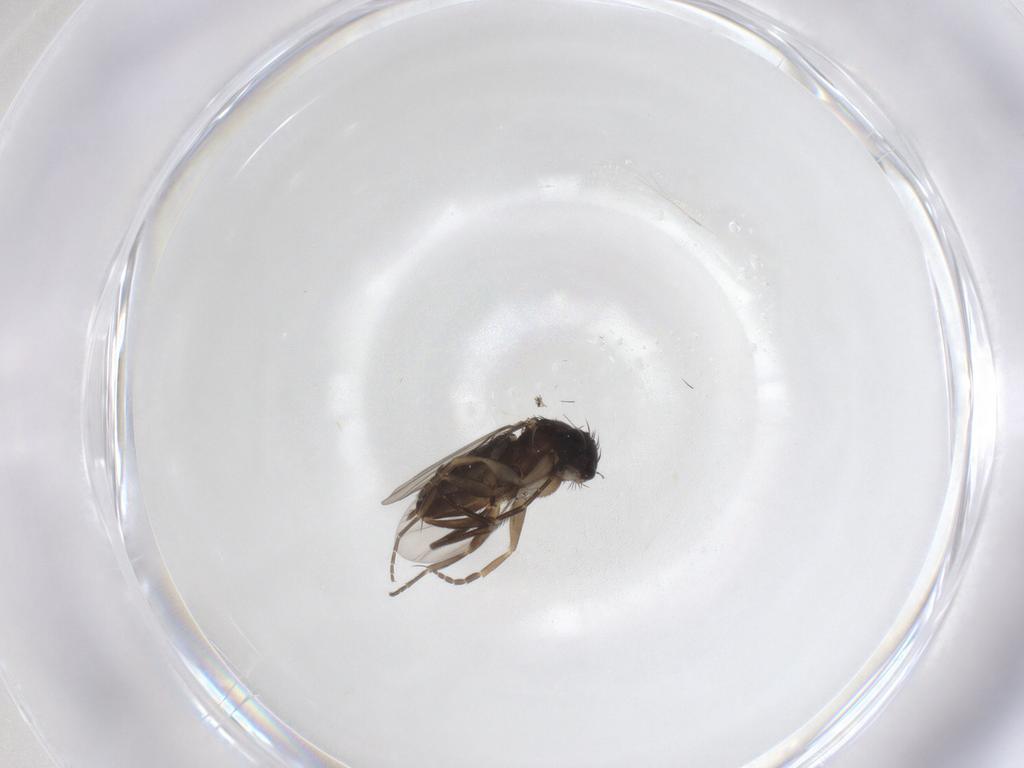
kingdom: Animalia
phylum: Arthropoda
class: Insecta
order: Diptera
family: Phoridae
